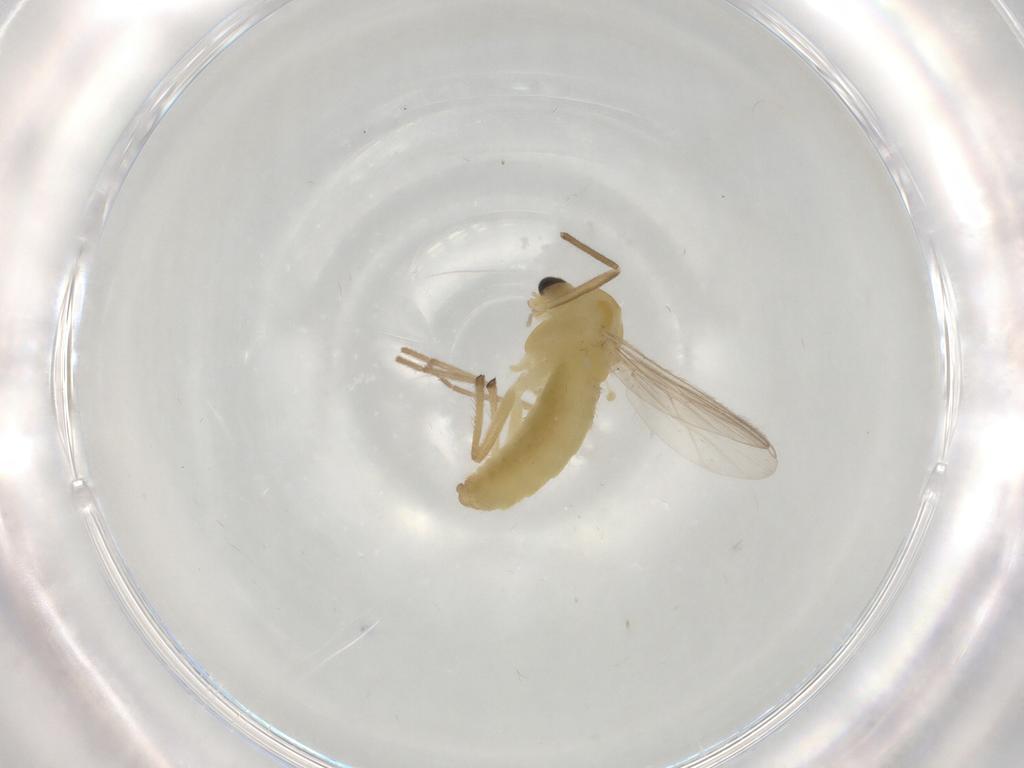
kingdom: Animalia
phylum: Arthropoda
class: Insecta
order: Diptera
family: Chironomidae
